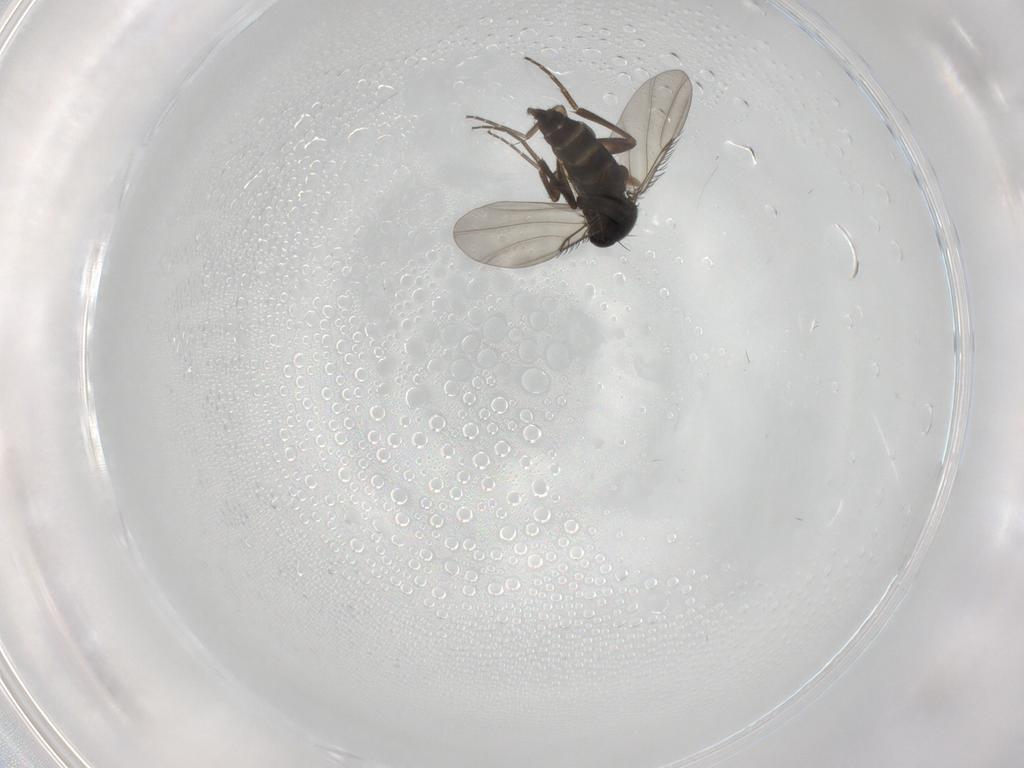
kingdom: Animalia
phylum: Arthropoda
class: Insecta
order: Diptera
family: Phoridae
